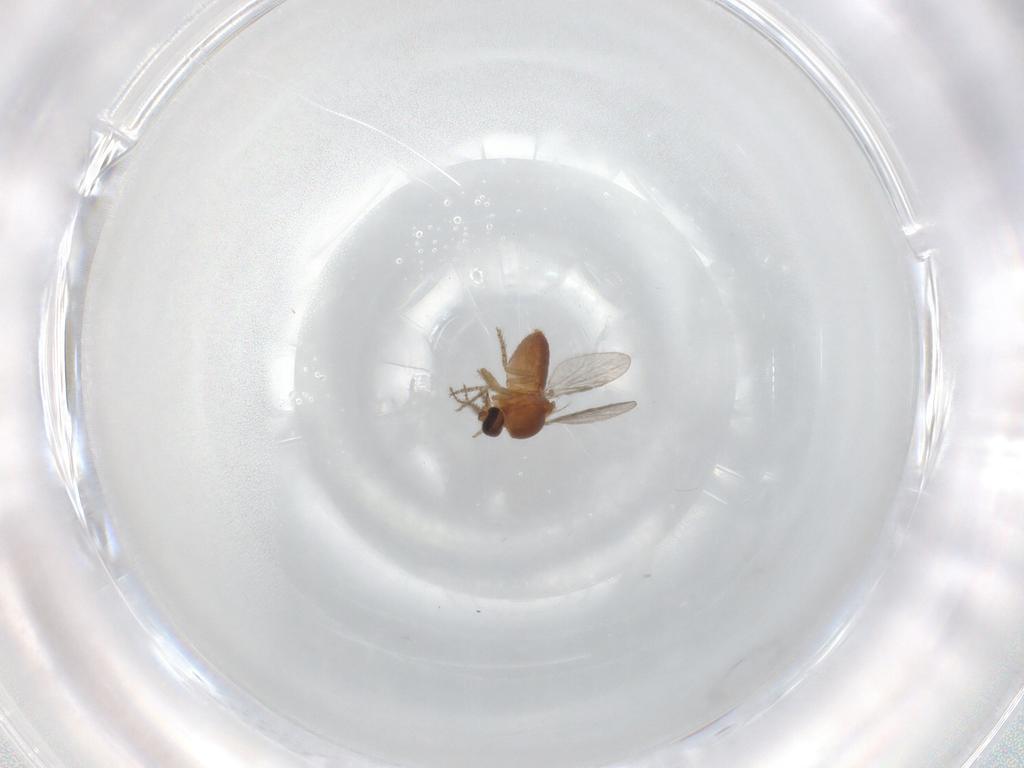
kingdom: Animalia
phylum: Arthropoda
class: Insecta
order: Diptera
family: Ceratopogonidae
